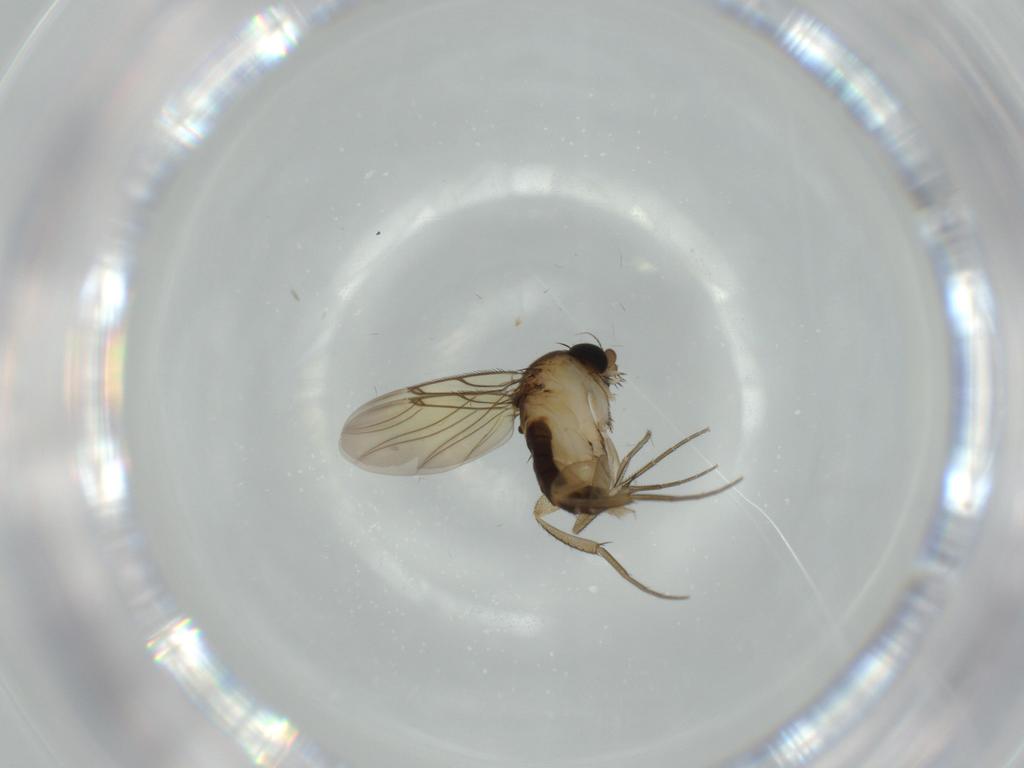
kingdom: Animalia
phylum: Arthropoda
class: Insecta
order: Diptera
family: Phoridae
